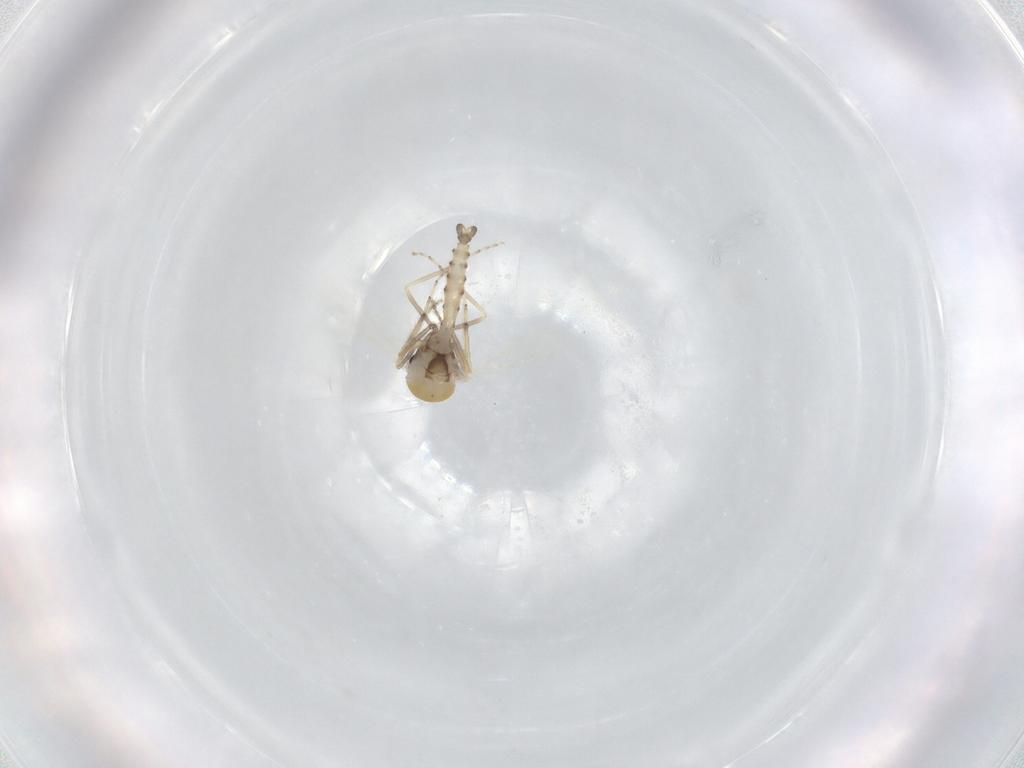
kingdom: Animalia
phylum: Arthropoda
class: Insecta
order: Diptera
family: Ceratopogonidae
